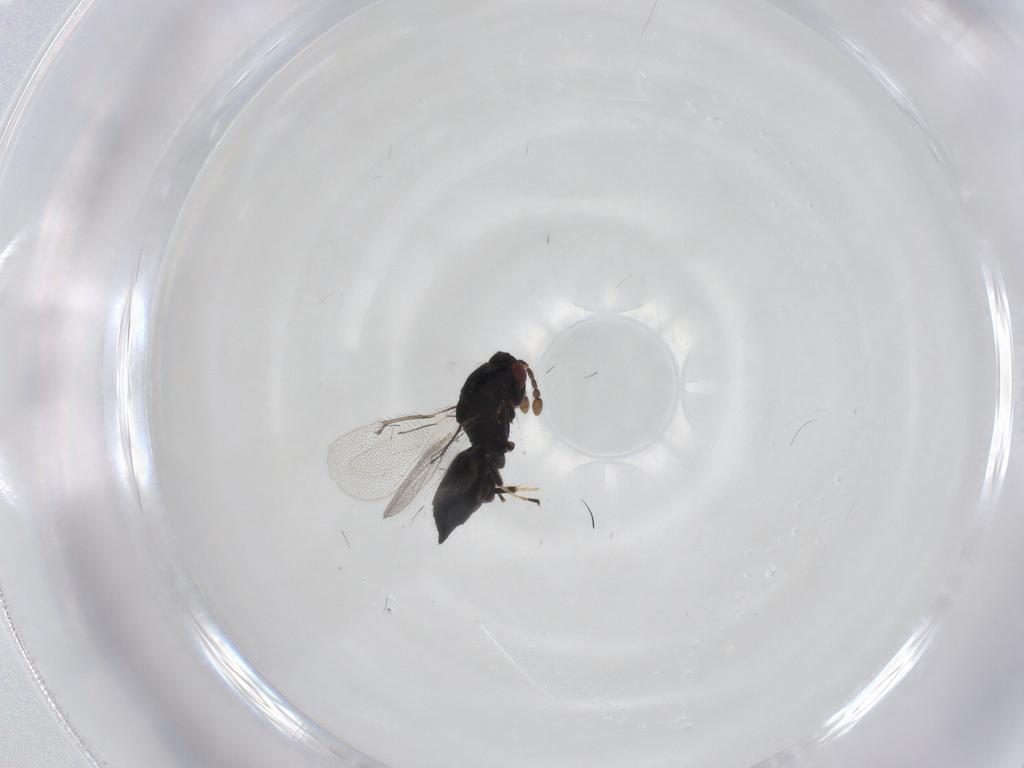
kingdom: Animalia
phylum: Arthropoda
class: Insecta
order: Hymenoptera
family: Eulophidae
